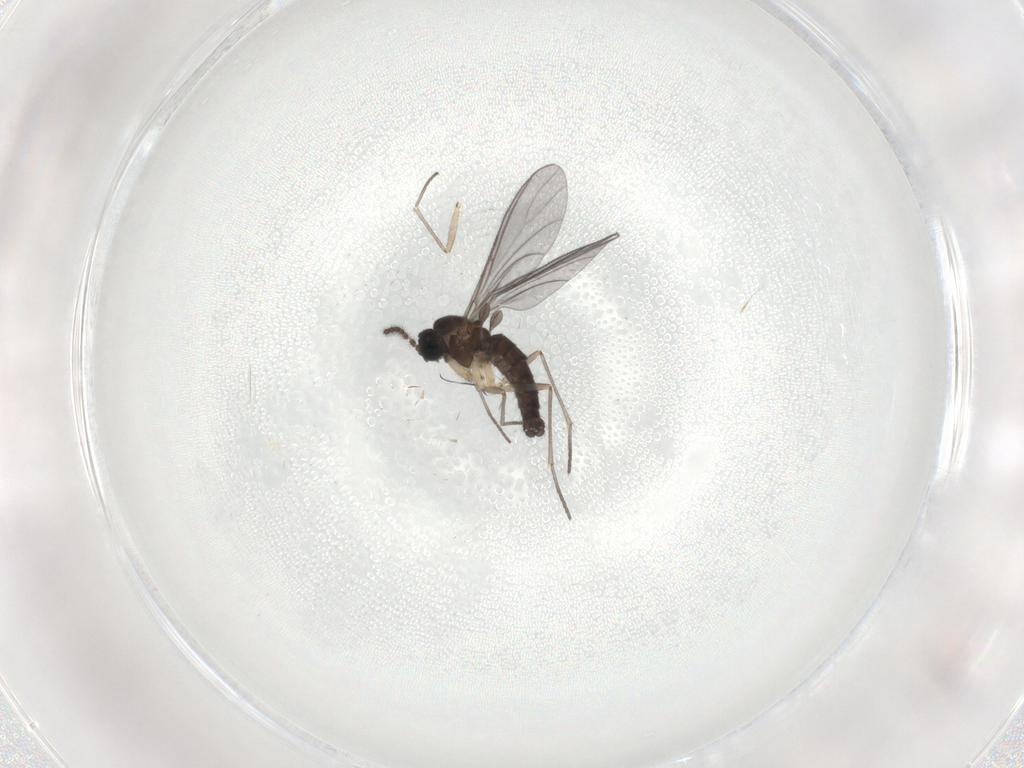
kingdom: Animalia
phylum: Arthropoda
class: Insecta
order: Diptera
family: Sciaridae
